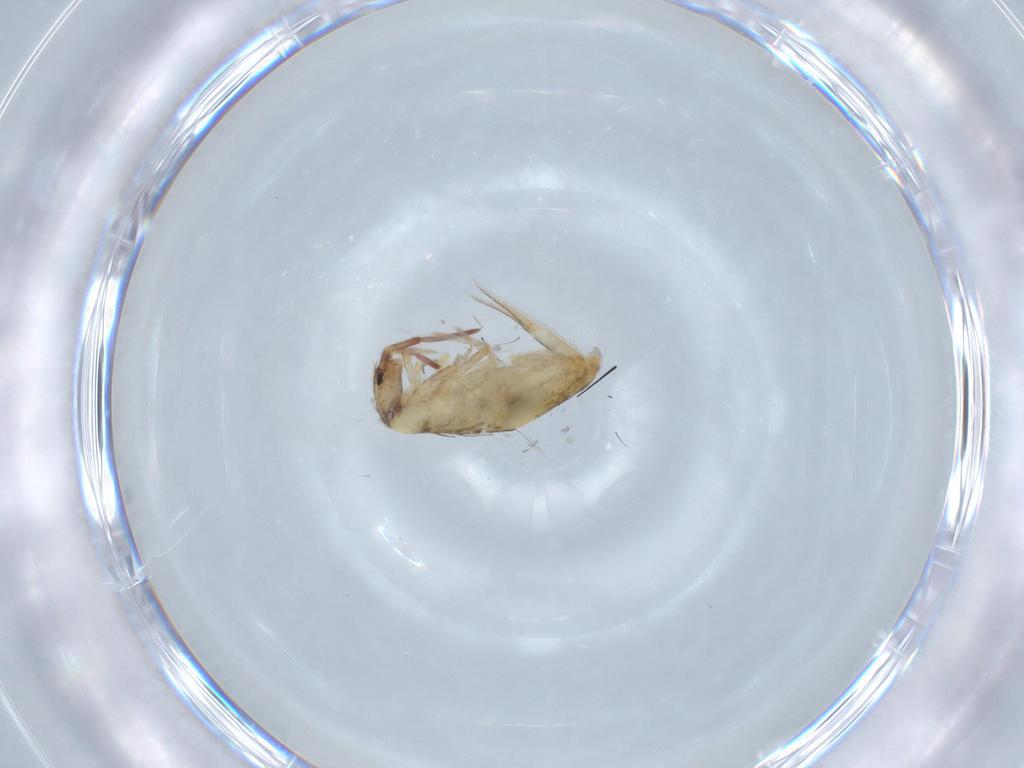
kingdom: Animalia
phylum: Arthropoda
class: Collembola
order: Entomobryomorpha
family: Entomobryidae
